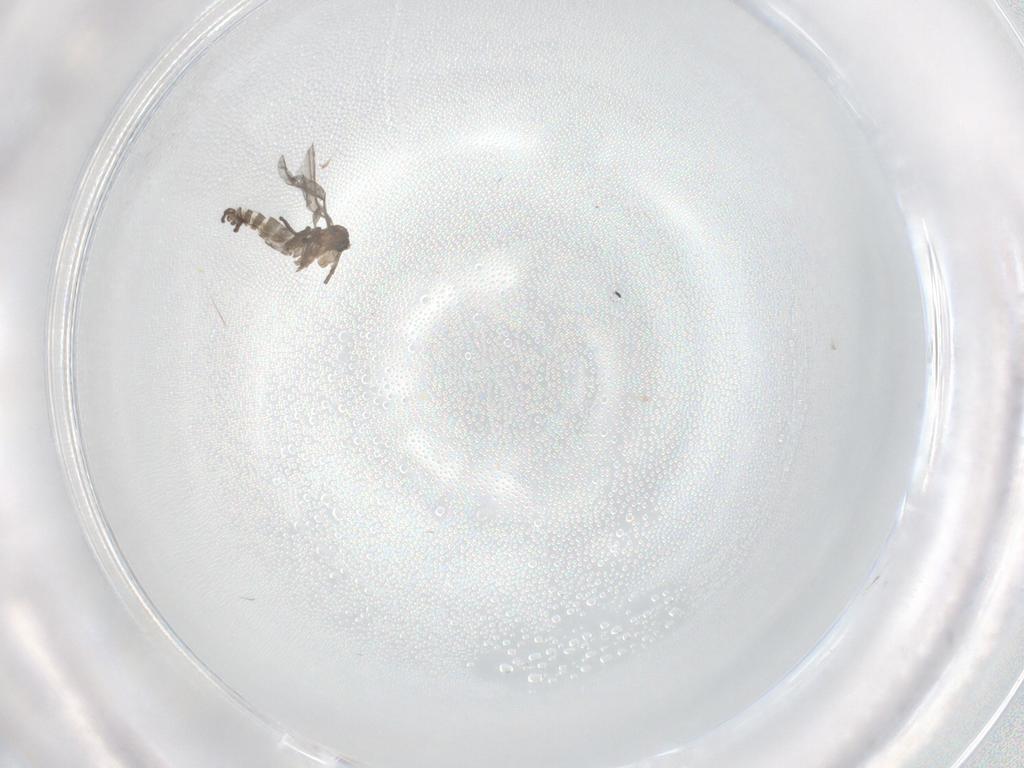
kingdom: Animalia
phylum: Arthropoda
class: Insecta
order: Diptera
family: Sciaridae
